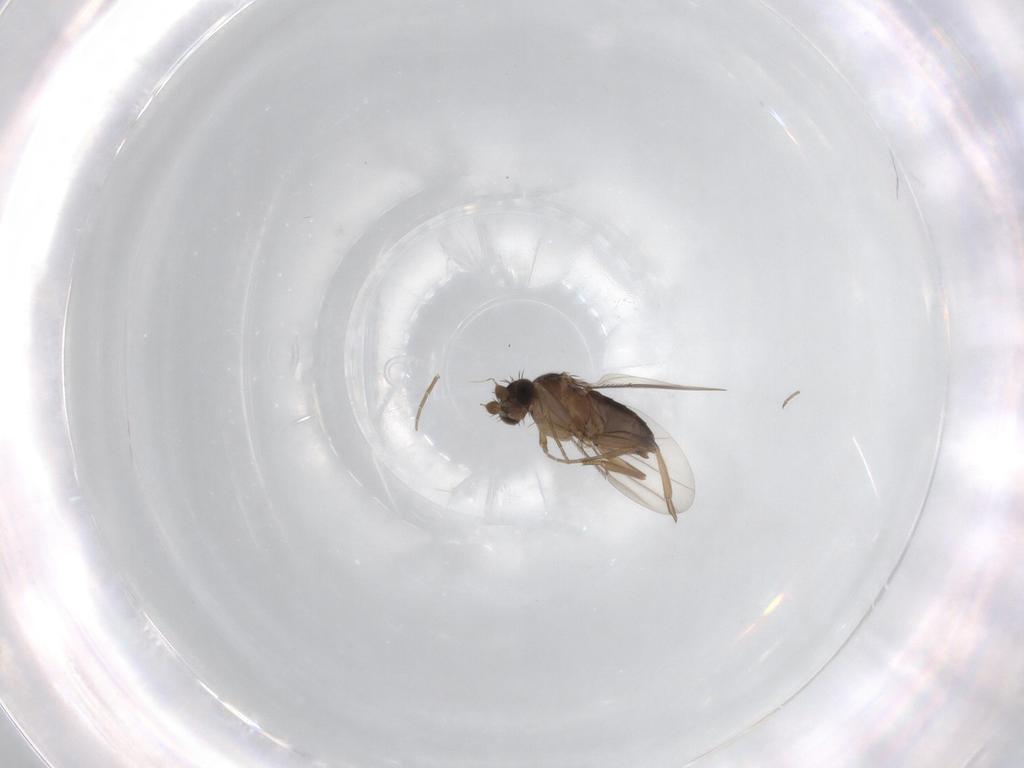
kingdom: Animalia
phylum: Arthropoda
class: Insecta
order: Diptera
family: Phoridae
